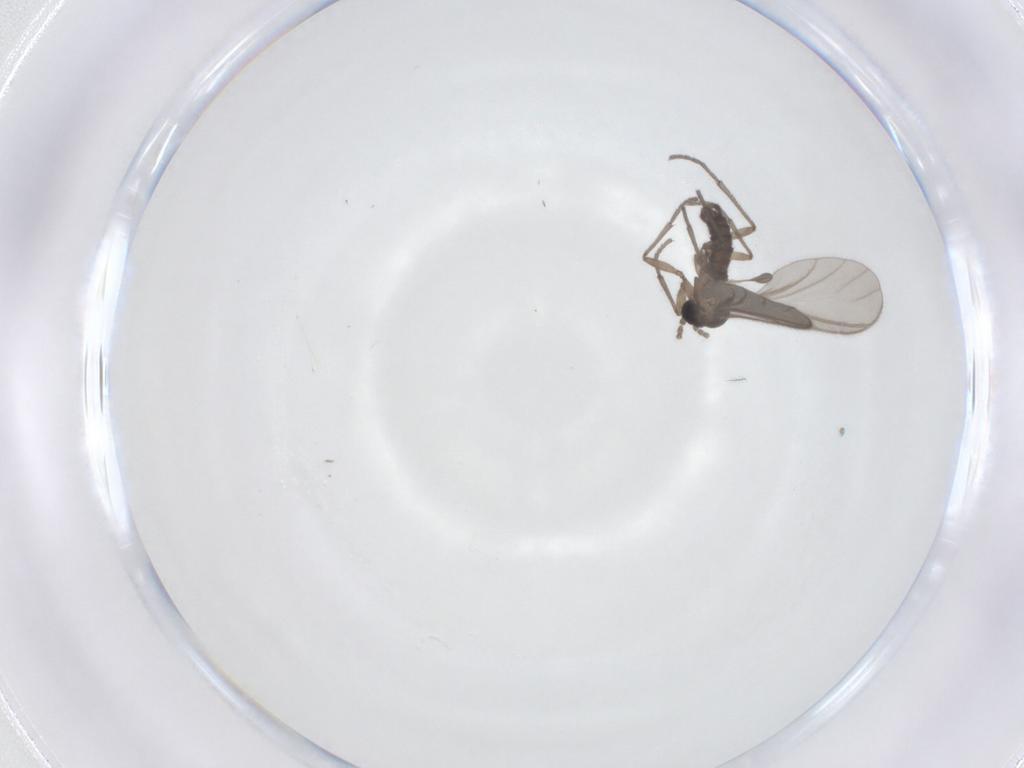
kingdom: Animalia
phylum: Arthropoda
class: Insecta
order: Diptera
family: Sciaridae
